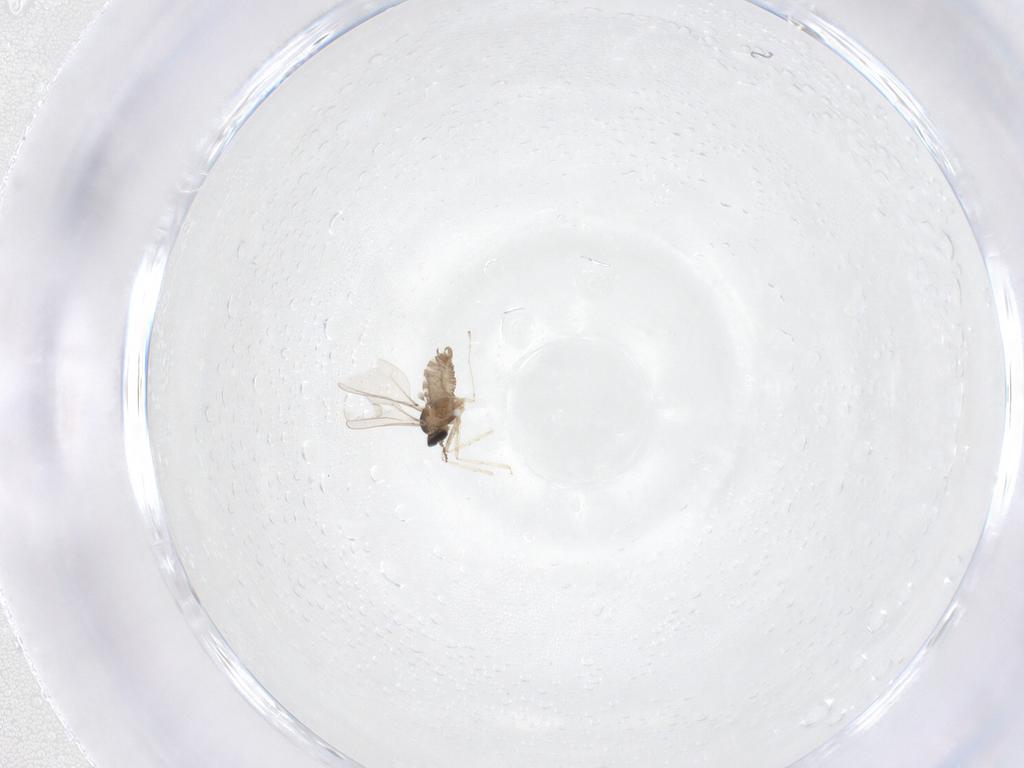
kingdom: Animalia
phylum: Arthropoda
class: Insecta
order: Diptera
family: Cecidomyiidae
